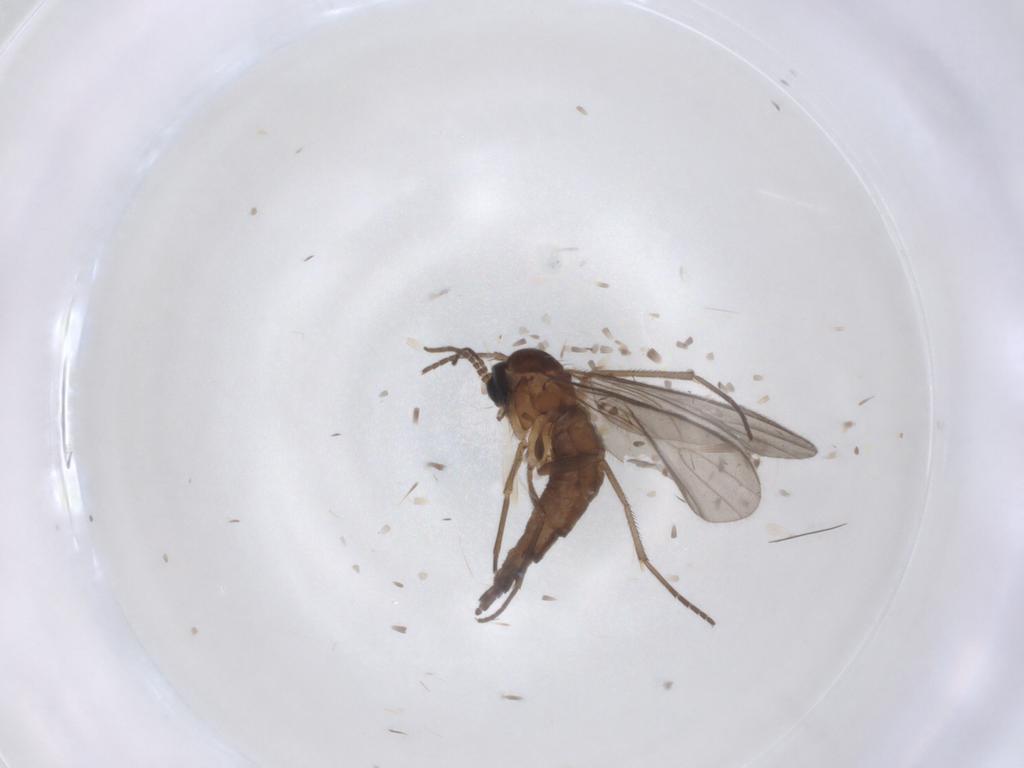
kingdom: Animalia
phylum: Arthropoda
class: Insecta
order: Diptera
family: Sciaridae
